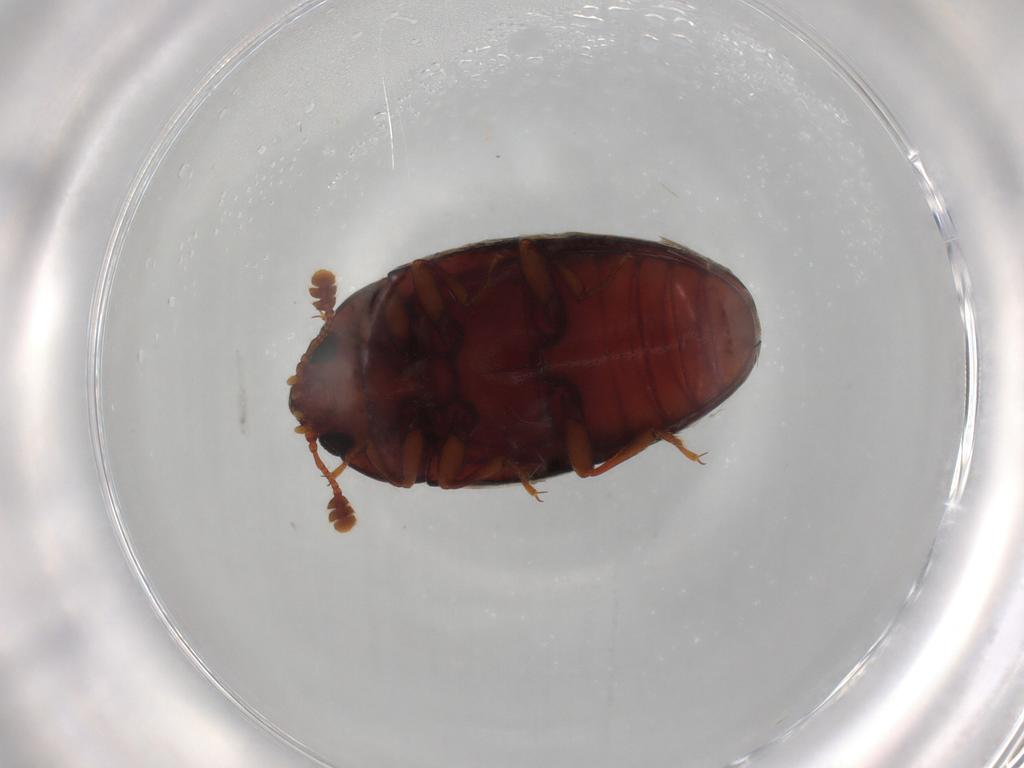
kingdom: Animalia
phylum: Arthropoda
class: Insecta
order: Coleoptera
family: Erotylidae
